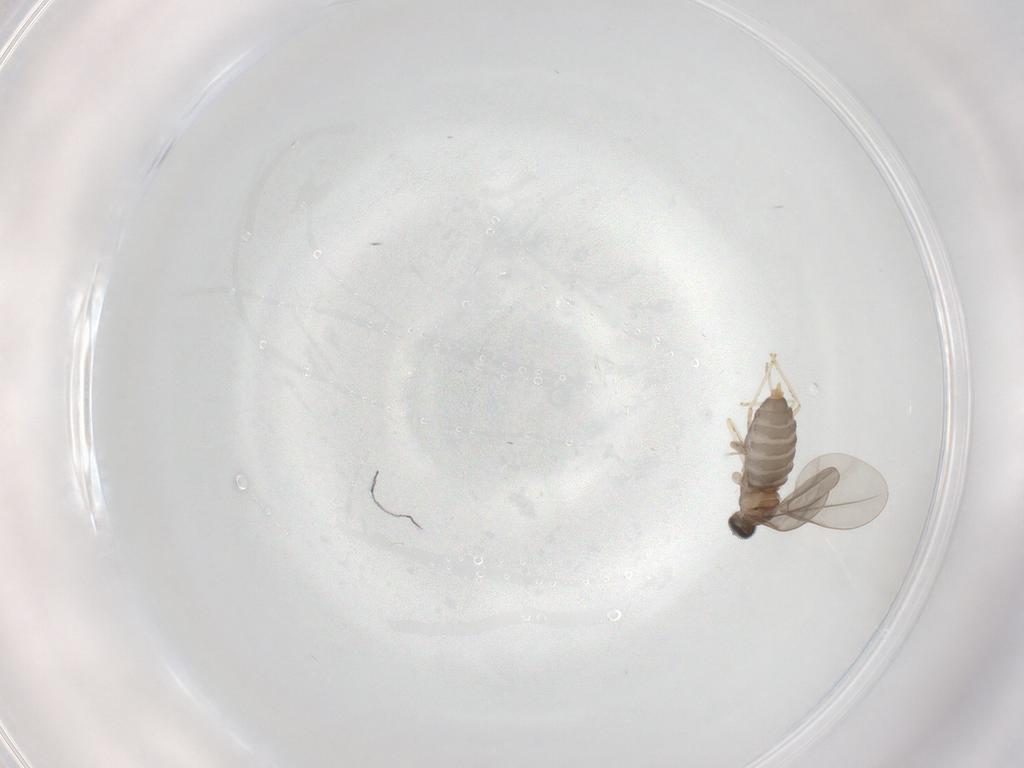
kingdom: Animalia
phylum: Arthropoda
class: Insecta
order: Diptera
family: Cecidomyiidae
